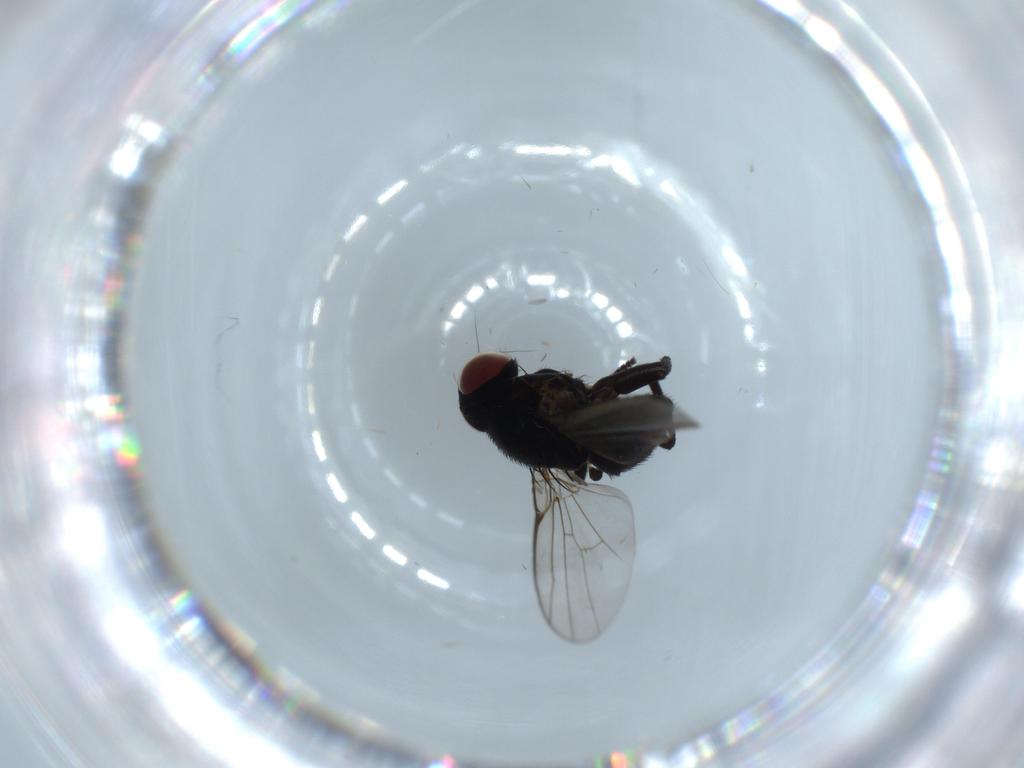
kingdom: Animalia
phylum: Arthropoda
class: Insecta
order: Diptera
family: Agromyzidae
